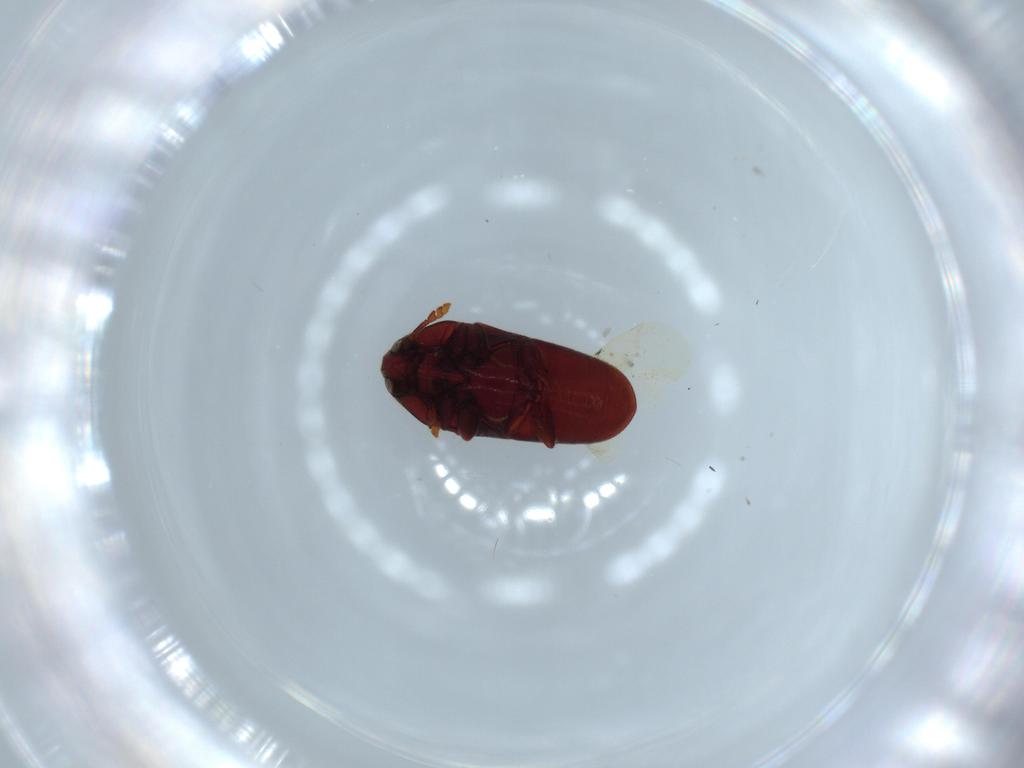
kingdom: Animalia
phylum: Arthropoda
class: Insecta
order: Coleoptera
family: Throscidae
